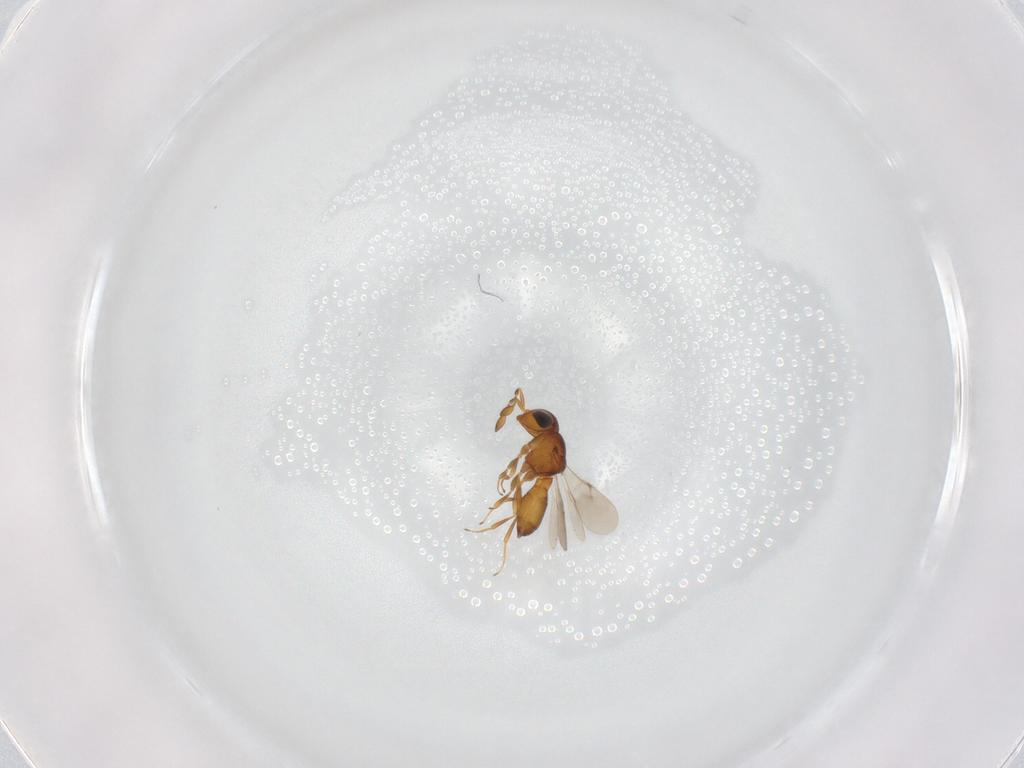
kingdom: Animalia
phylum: Arthropoda
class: Insecta
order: Hymenoptera
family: Scelionidae
